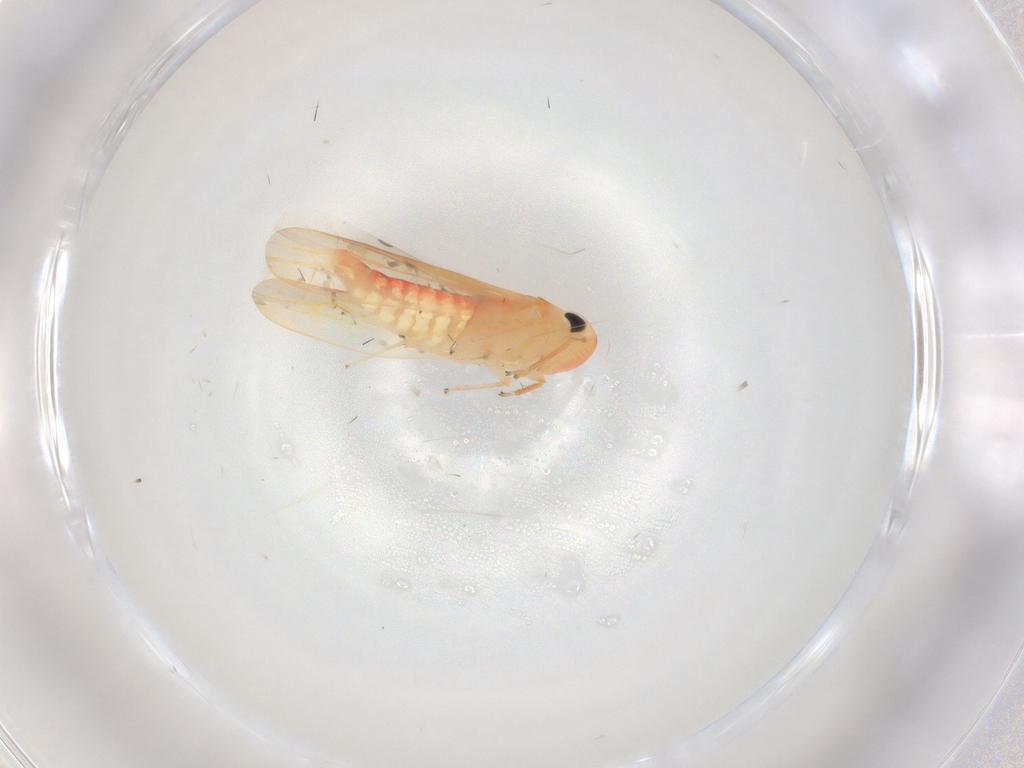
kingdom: Animalia
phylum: Arthropoda
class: Insecta
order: Hemiptera
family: Cicadellidae
